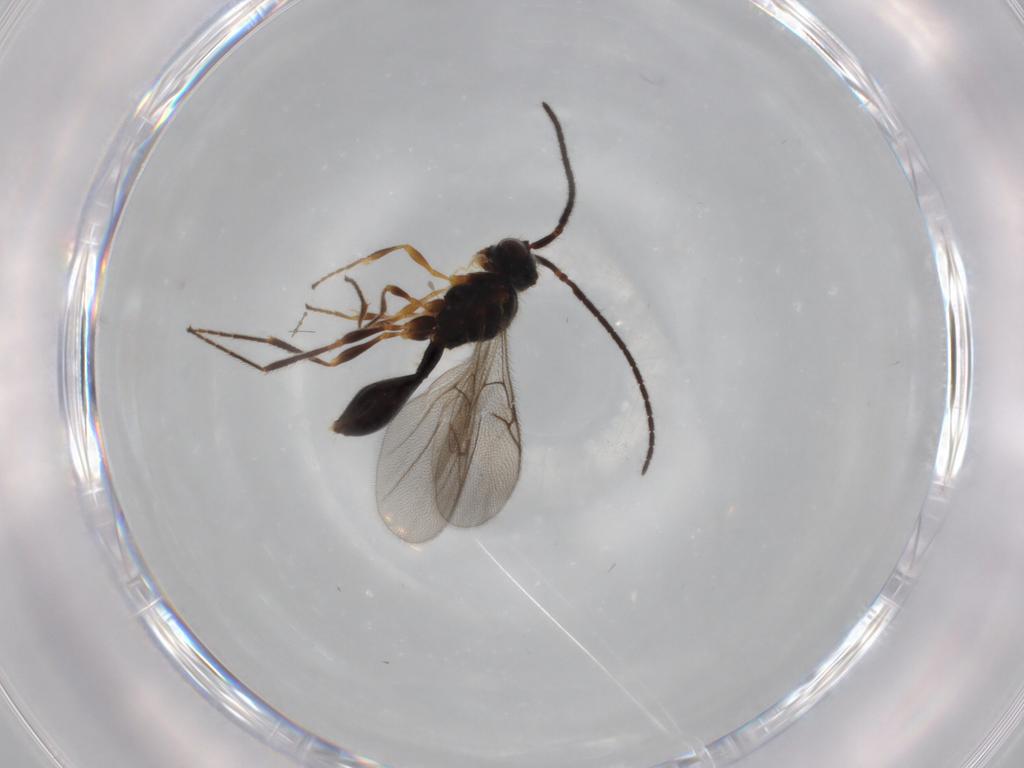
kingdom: Animalia
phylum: Arthropoda
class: Insecta
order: Hymenoptera
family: Diapriidae
